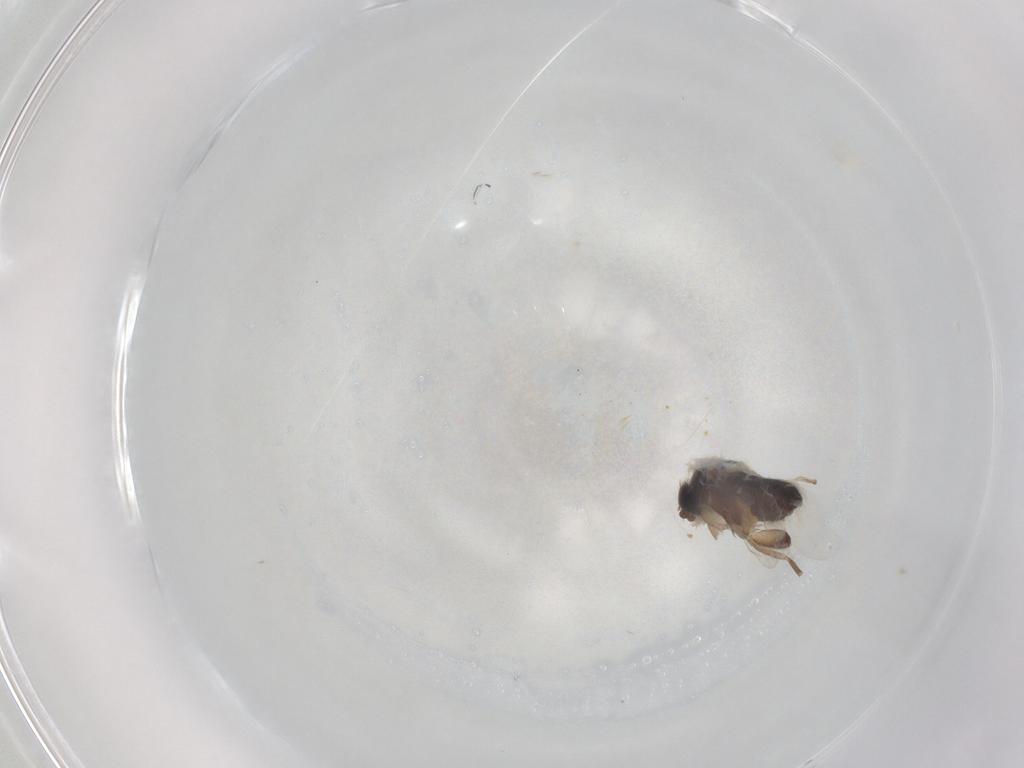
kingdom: Animalia
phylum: Arthropoda
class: Insecta
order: Diptera
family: Phoridae
